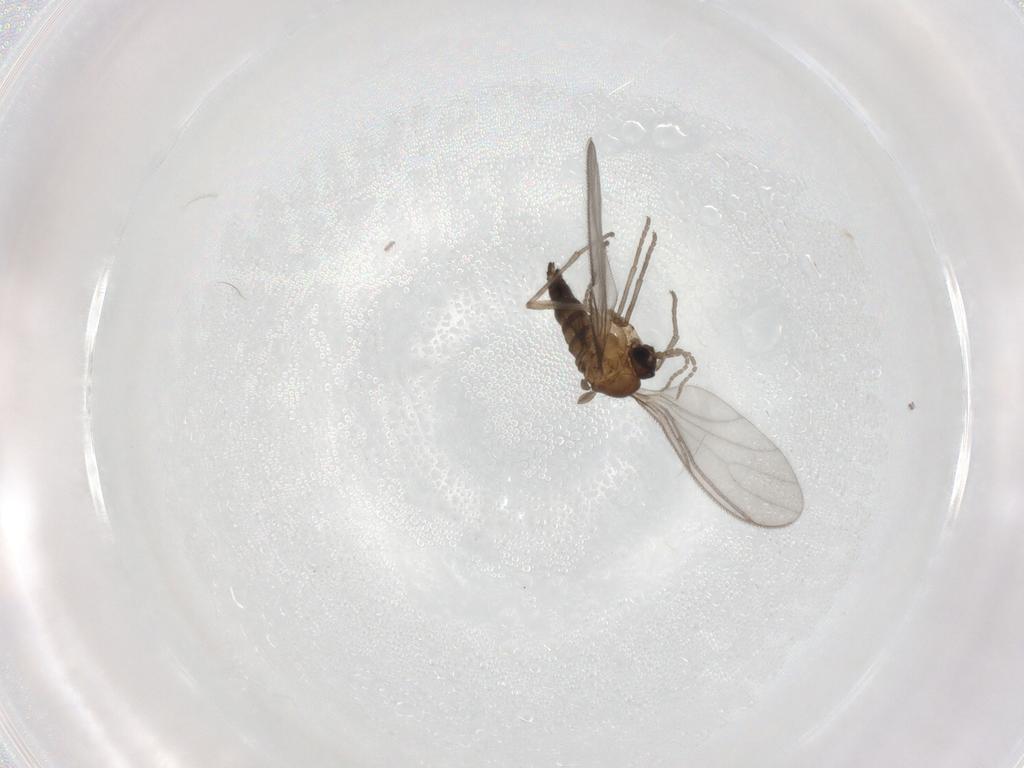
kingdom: Animalia
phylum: Arthropoda
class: Insecta
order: Diptera
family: Sciaridae
